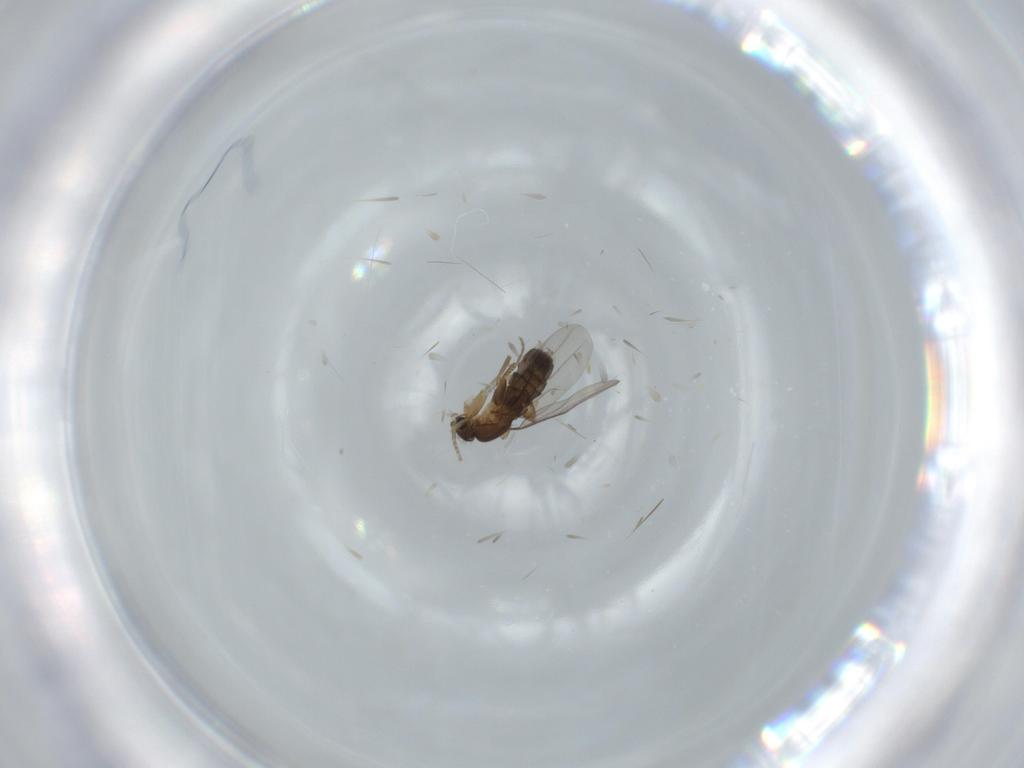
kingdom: Animalia
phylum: Arthropoda
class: Insecta
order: Diptera
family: Phoridae
